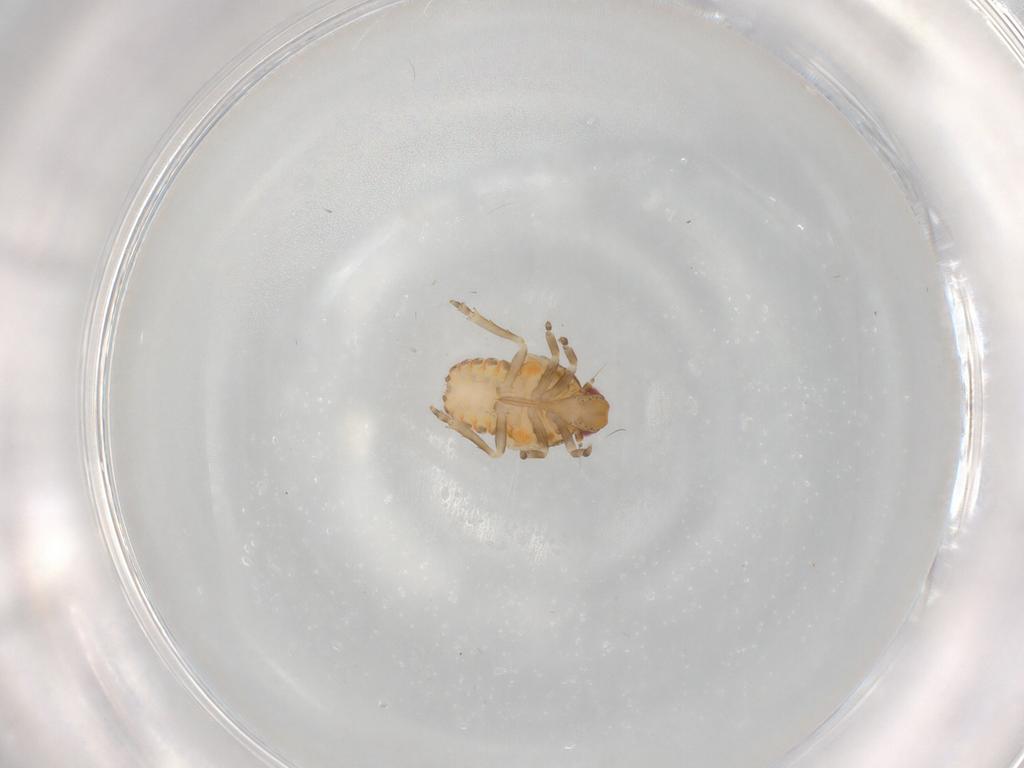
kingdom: Animalia
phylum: Arthropoda
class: Insecta
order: Hemiptera
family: Flatidae
